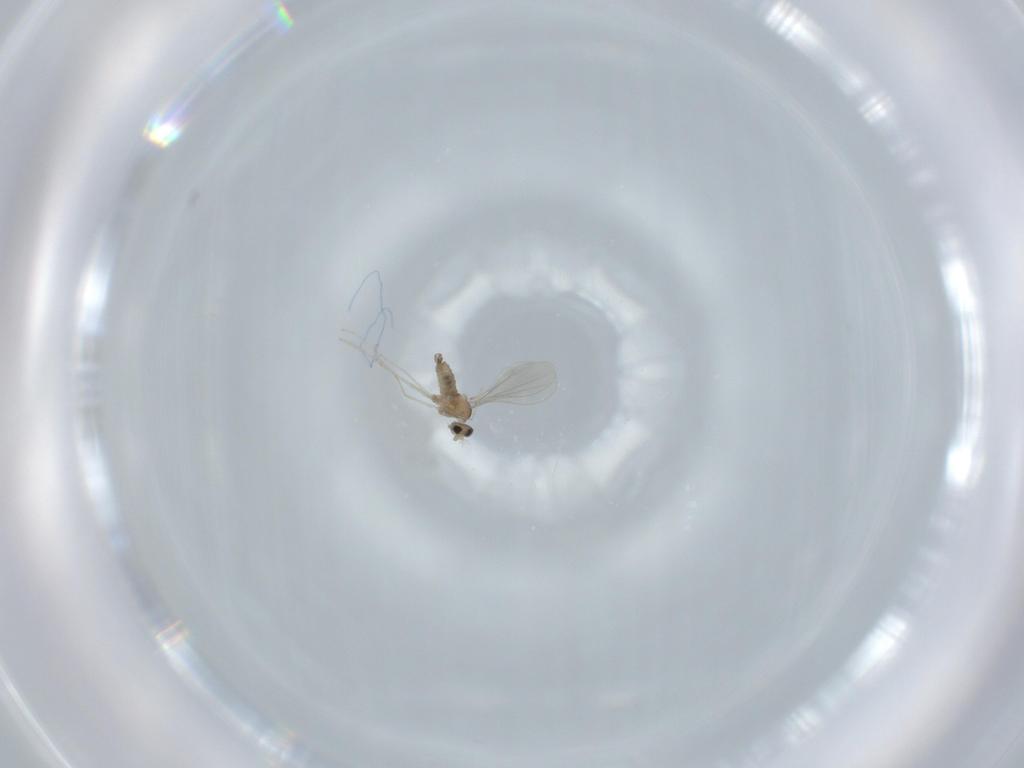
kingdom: Animalia
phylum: Arthropoda
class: Insecta
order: Diptera
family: Cecidomyiidae
